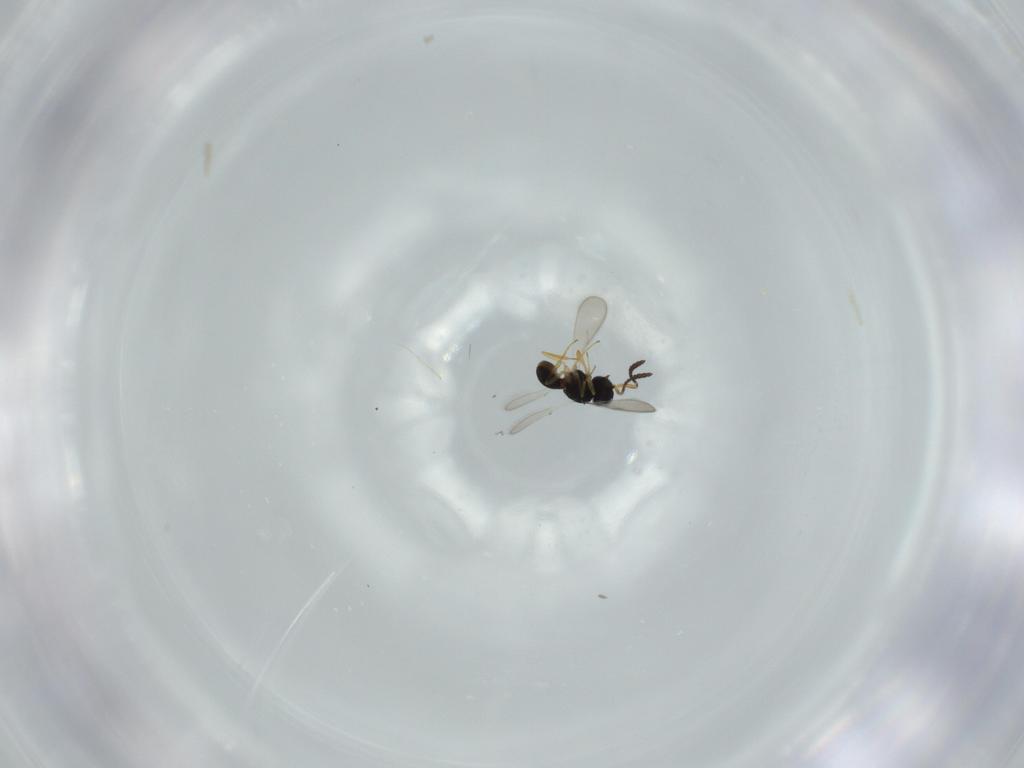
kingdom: Animalia
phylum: Arthropoda
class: Insecta
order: Hymenoptera
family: Scelionidae
